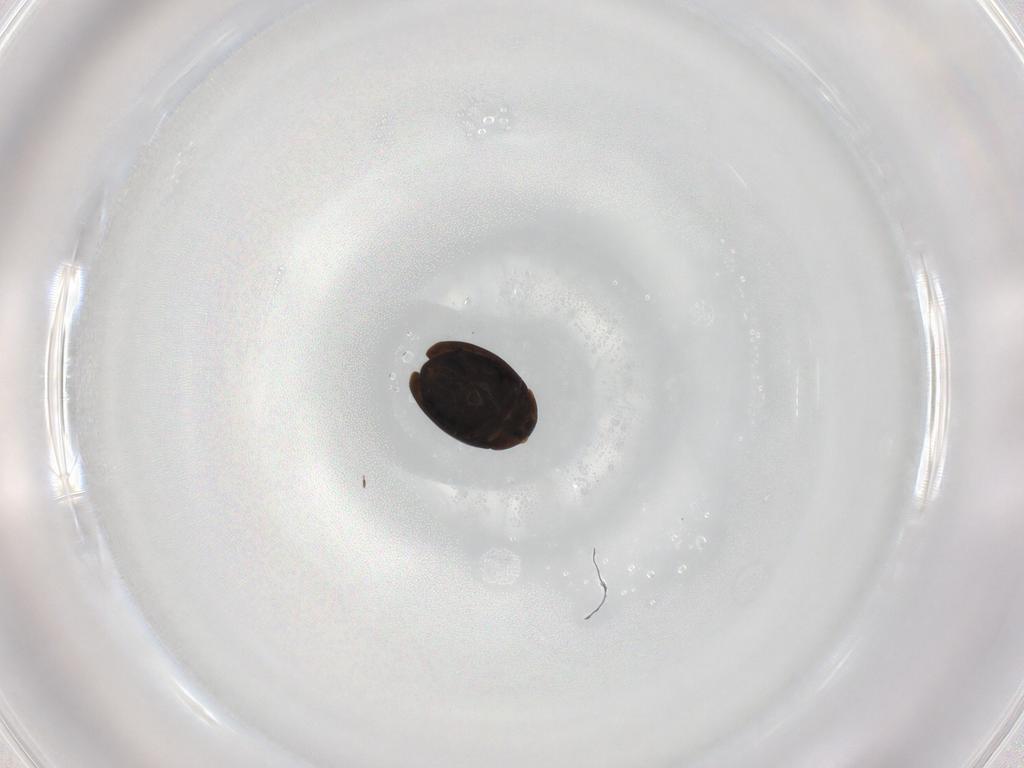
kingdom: Animalia
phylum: Arthropoda
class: Insecta
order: Coleoptera
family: Corylophidae
